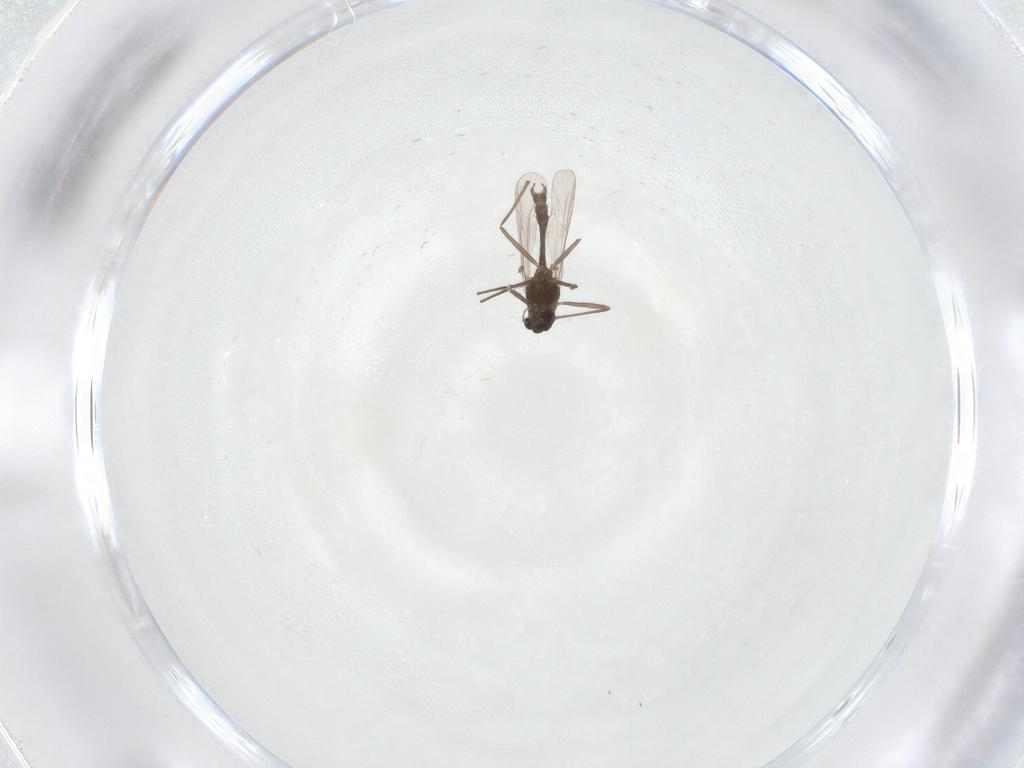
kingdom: Animalia
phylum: Arthropoda
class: Insecta
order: Diptera
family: Chironomidae
